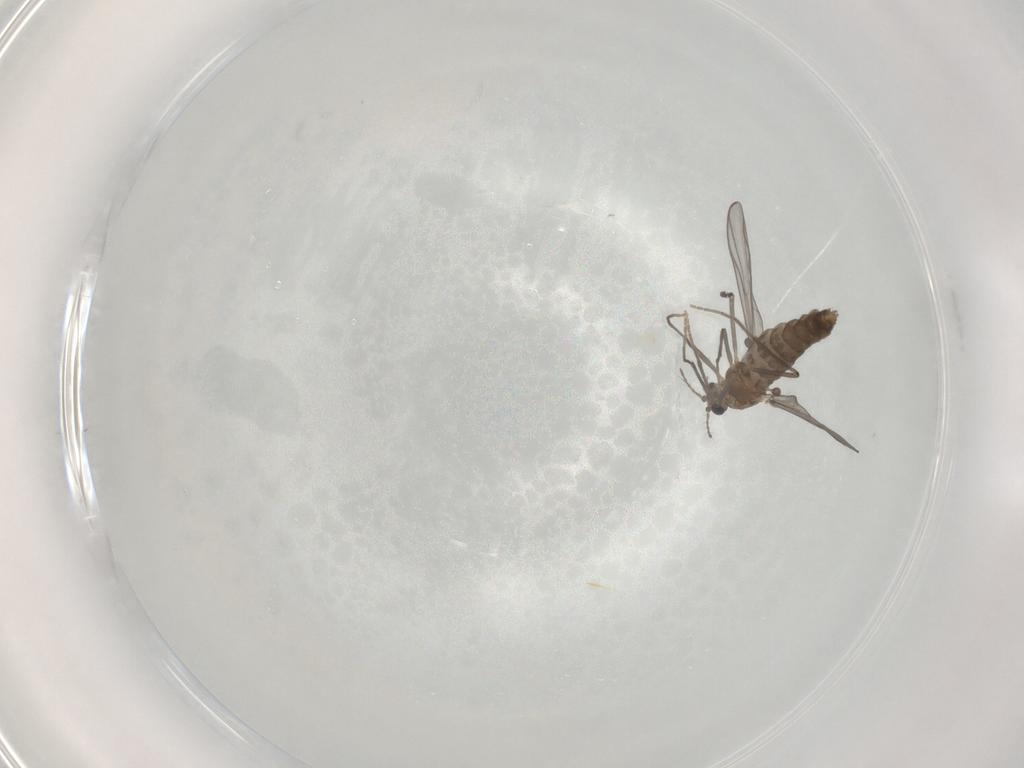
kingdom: Animalia
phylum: Arthropoda
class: Insecta
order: Diptera
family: Chironomidae
